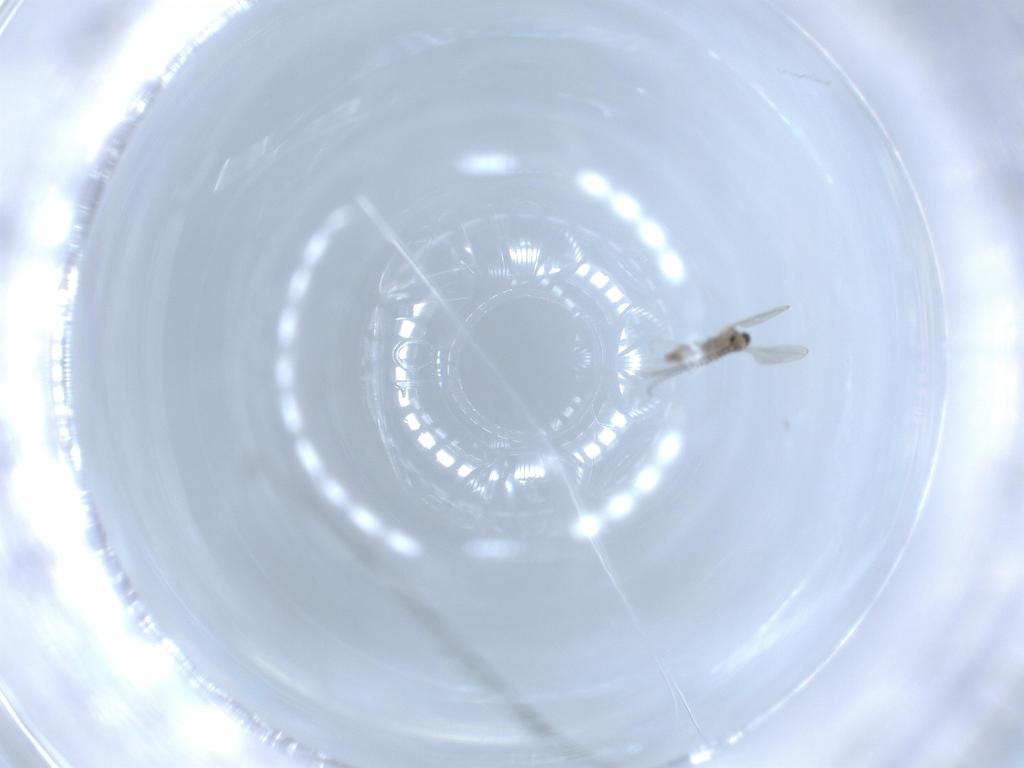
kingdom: Animalia
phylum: Arthropoda
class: Insecta
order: Diptera
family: Cecidomyiidae
